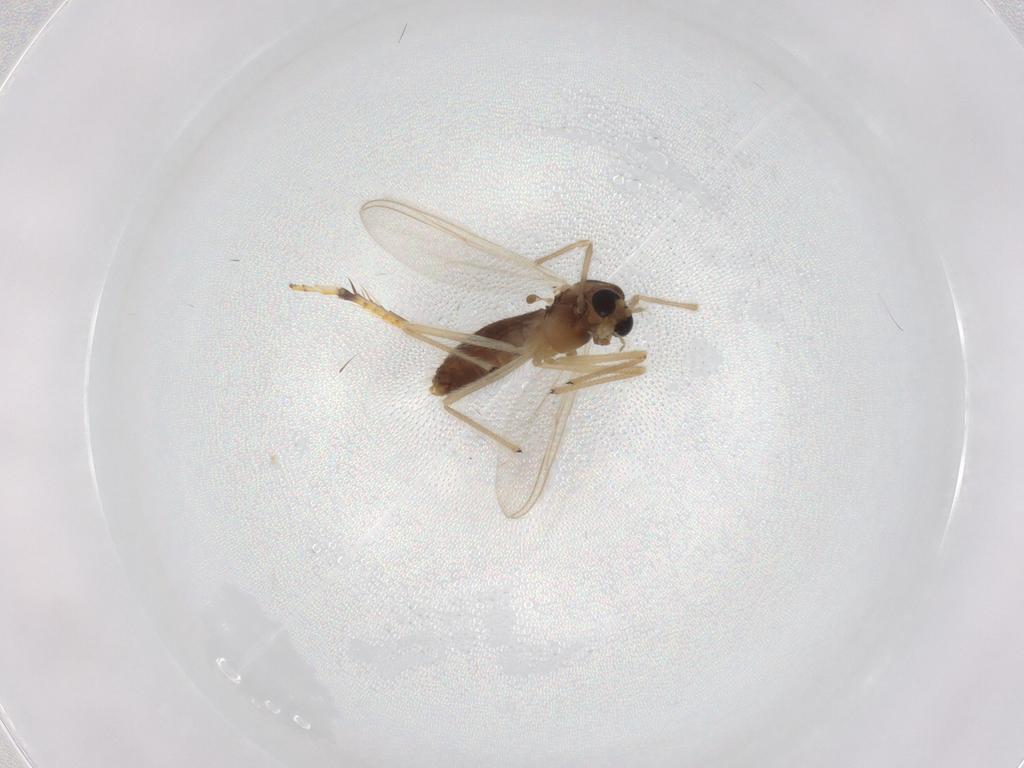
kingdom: Animalia
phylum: Arthropoda
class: Insecta
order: Diptera
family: Chironomidae
